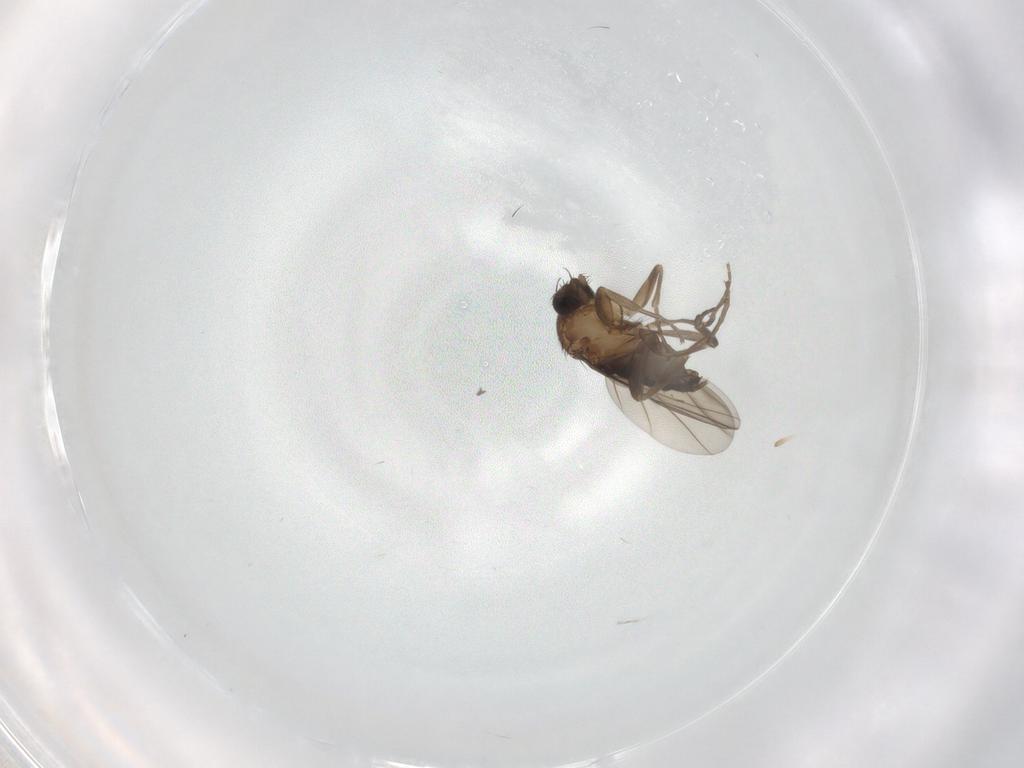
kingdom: Animalia
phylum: Arthropoda
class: Insecta
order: Diptera
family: Phoridae
